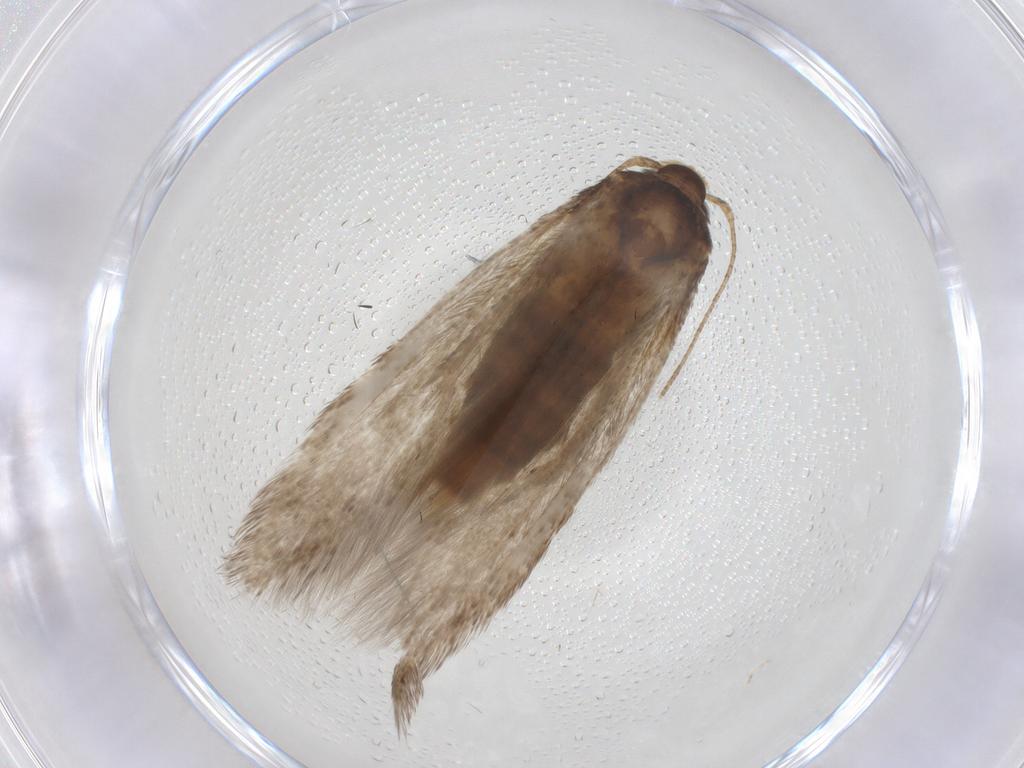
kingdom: Animalia
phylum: Arthropoda
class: Insecta
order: Lepidoptera
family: Coleophoridae
